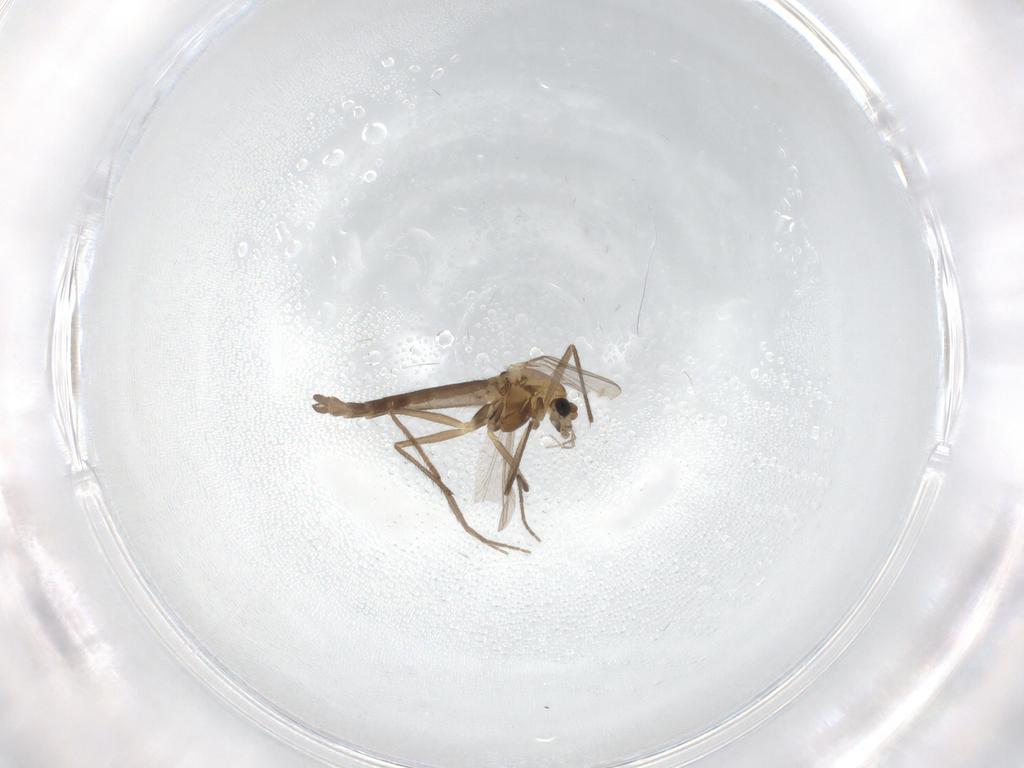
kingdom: Animalia
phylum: Arthropoda
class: Insecta
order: Diptera
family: Chironomidae
